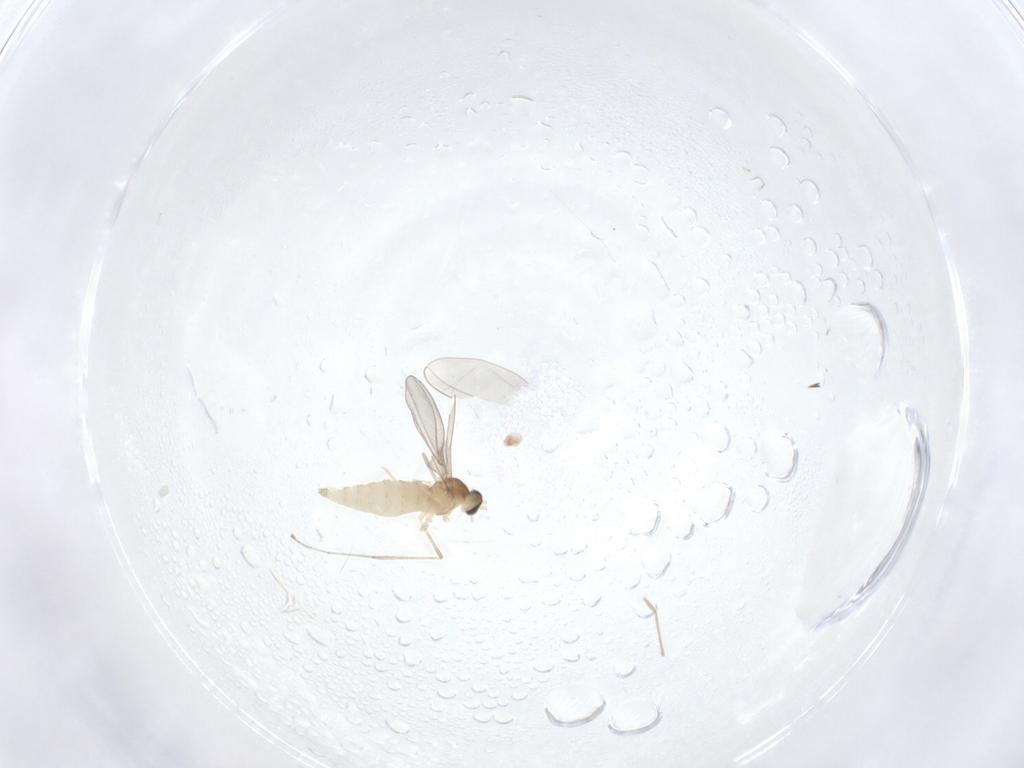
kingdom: Animalia
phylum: Arthropoda
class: Insecta
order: Diptera
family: Cecidomyiidae
